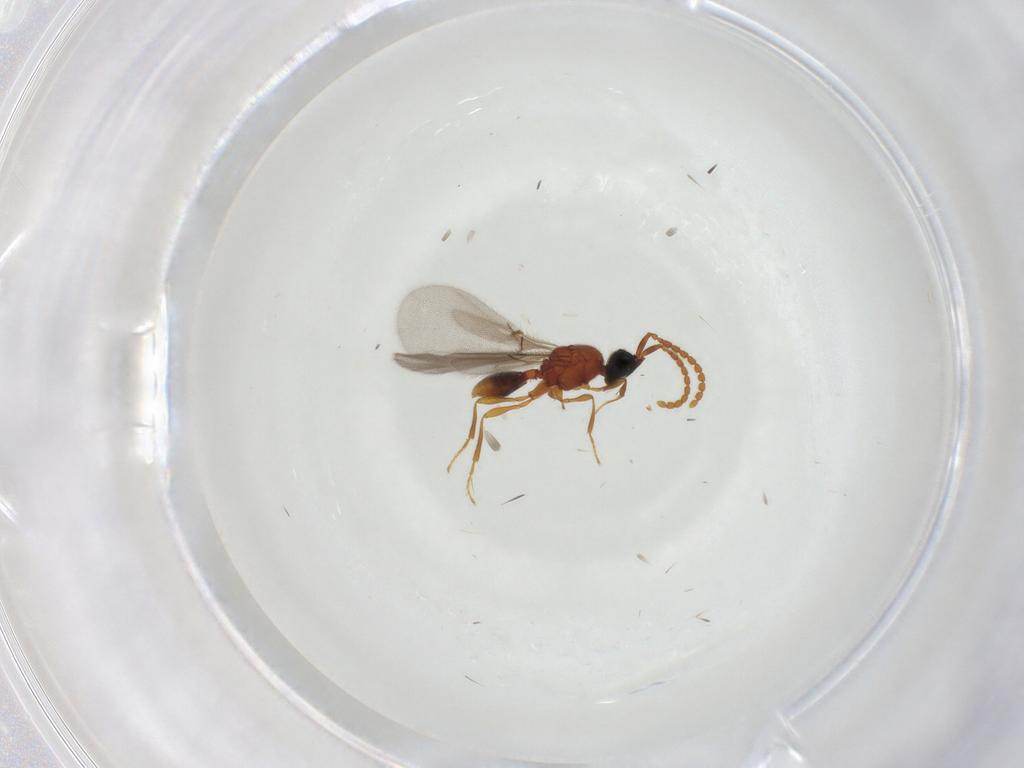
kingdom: Animalia
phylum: Arthropoda
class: Insecta
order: Hymenoptera
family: Diapriidae
